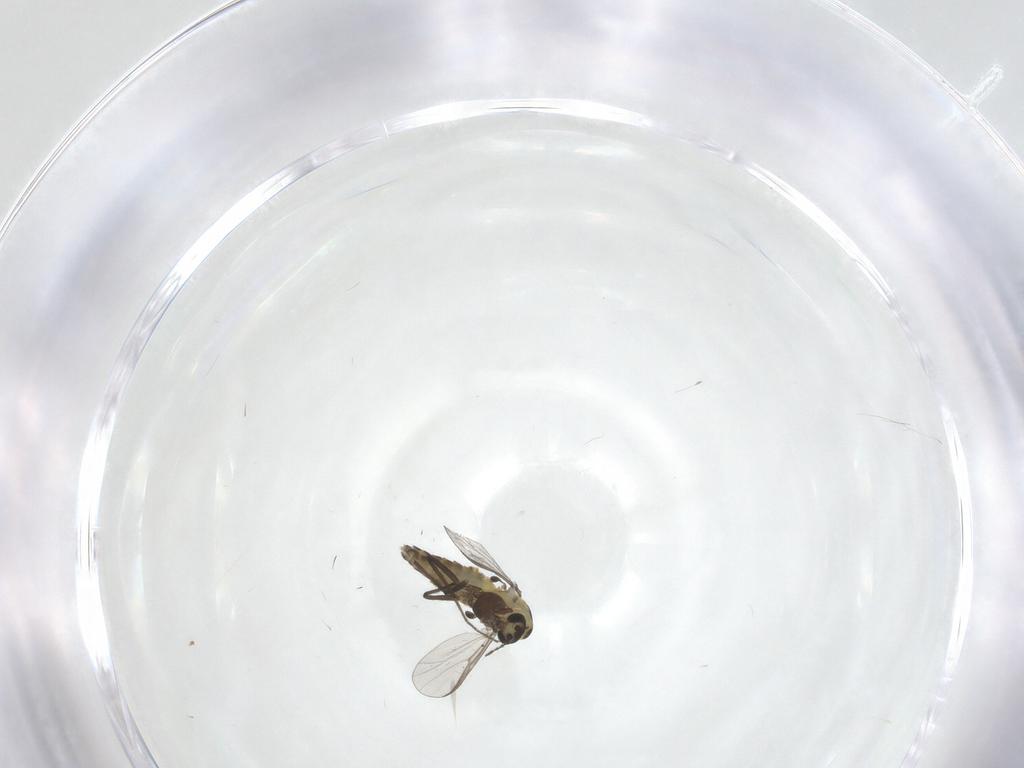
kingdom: Animalia
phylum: Arthropoda
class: Insecta
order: Diptera
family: Chironomidae
